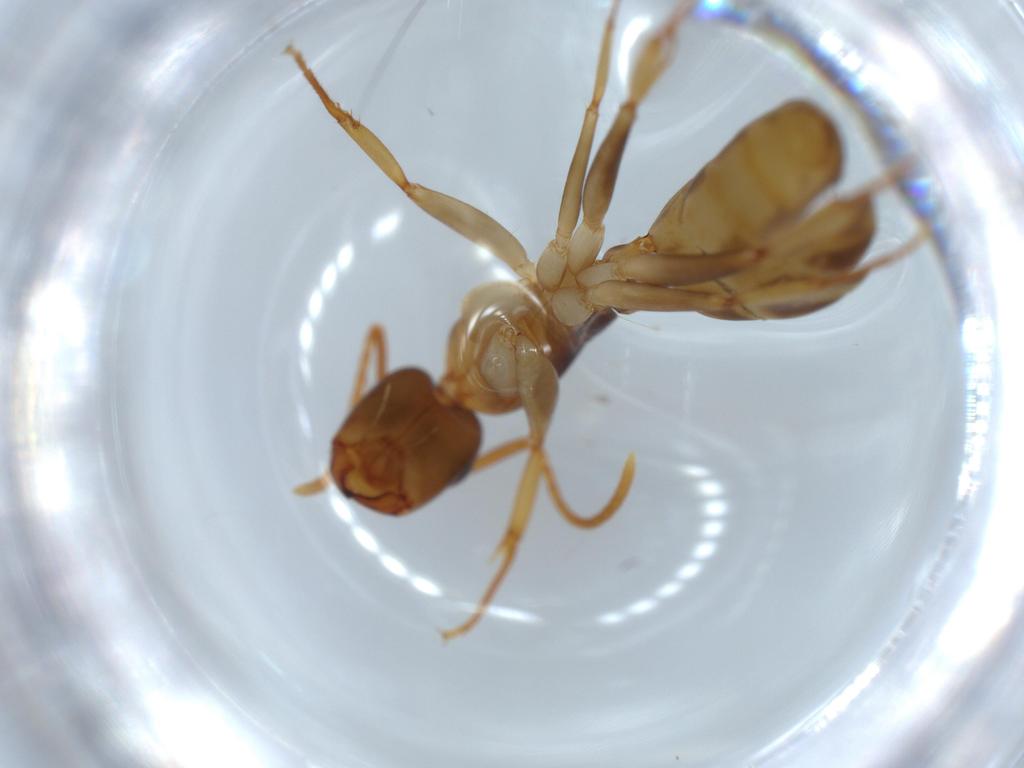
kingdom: Animalia
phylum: Arthropoda
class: Insecta
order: Hymenoptera
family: Formicidae
